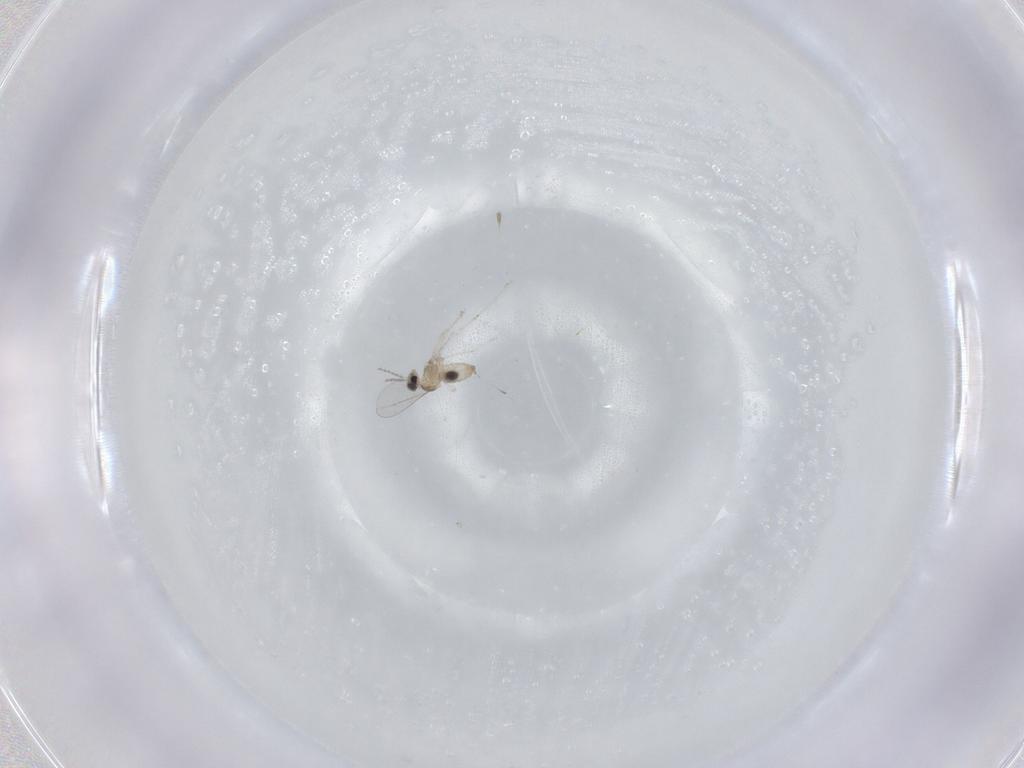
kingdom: Animalia
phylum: Arthropoda
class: Insecta
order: Diptera
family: Cecidomyiidae
